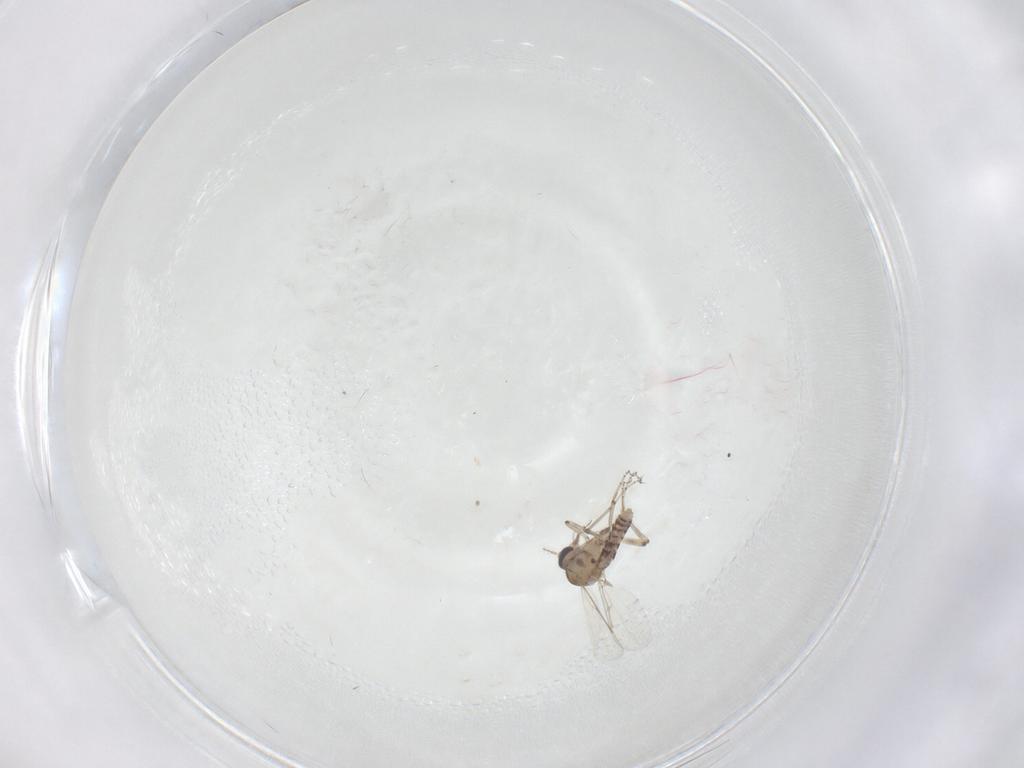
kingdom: Animalia
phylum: Arthropoda
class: Insecta
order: Diptera
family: Ceratopogonidae
